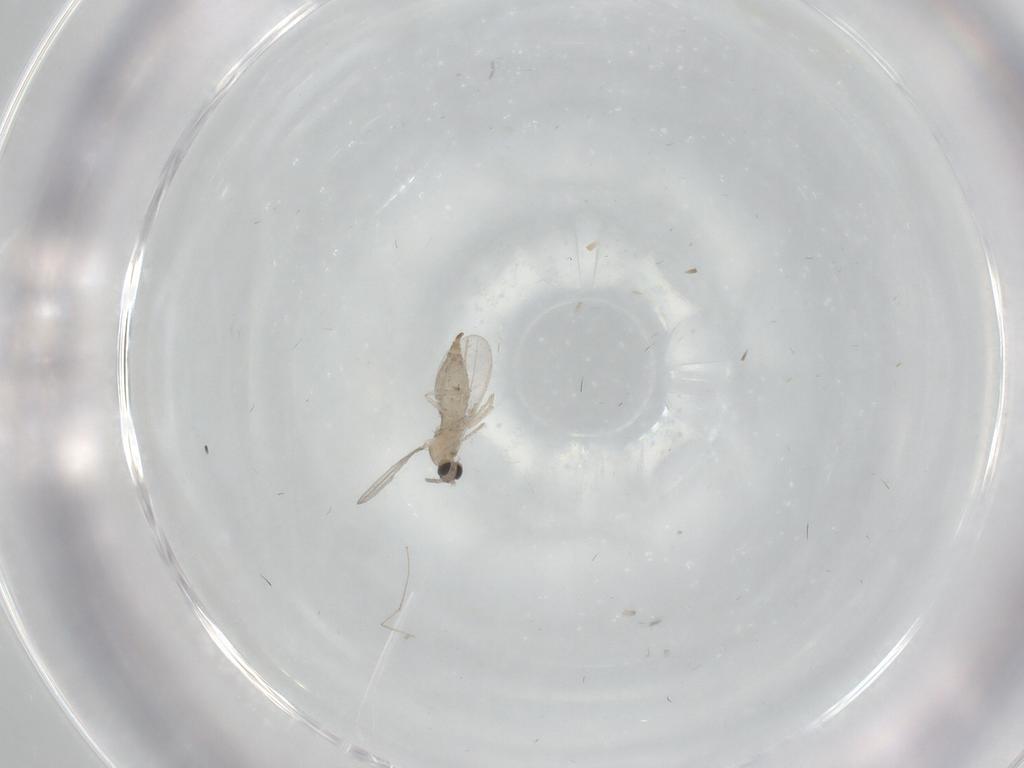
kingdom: Animalia
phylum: Arthropoda
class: Insecta
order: Diptera
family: Cecidomyiidae
